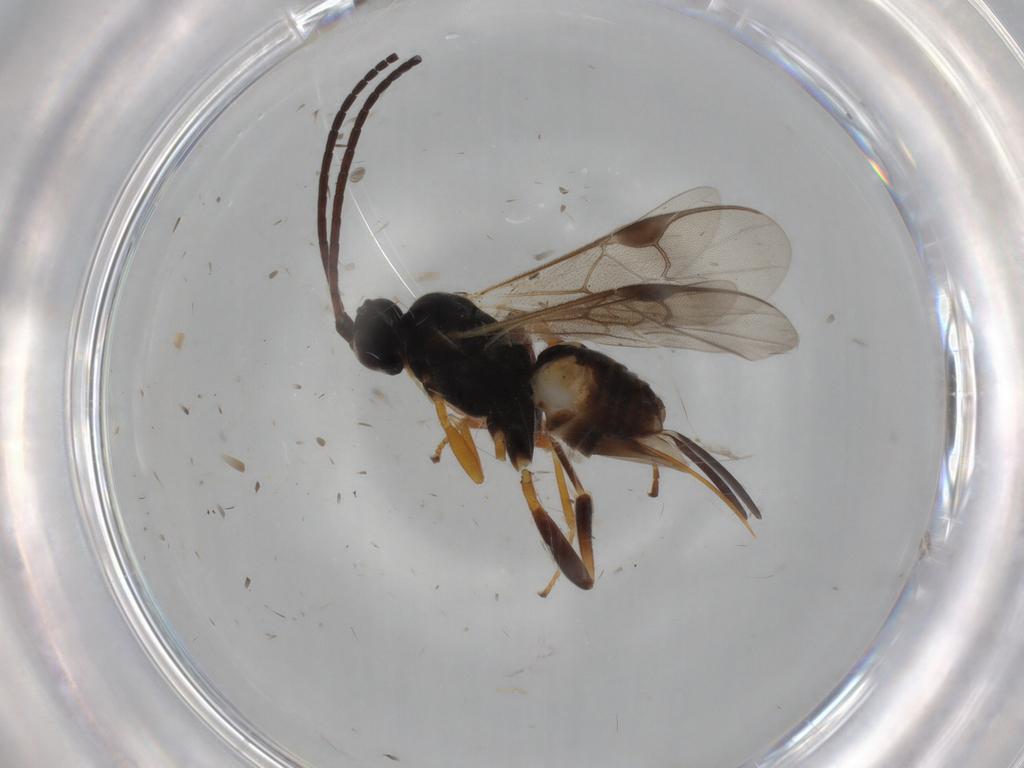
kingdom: Animalia
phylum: Arthropoda
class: Insecta
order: Hymenoptera
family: Braconidae
